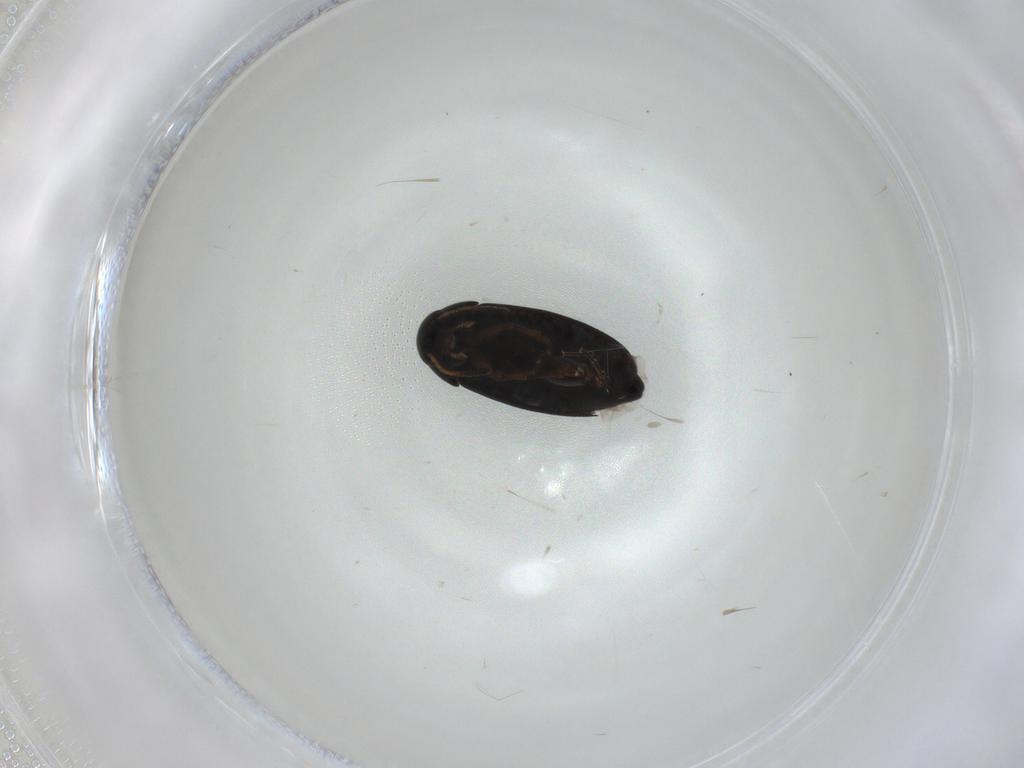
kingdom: Animalia
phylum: Arthropoda
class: Insecta
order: Coleoptera
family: Scraptiidae
